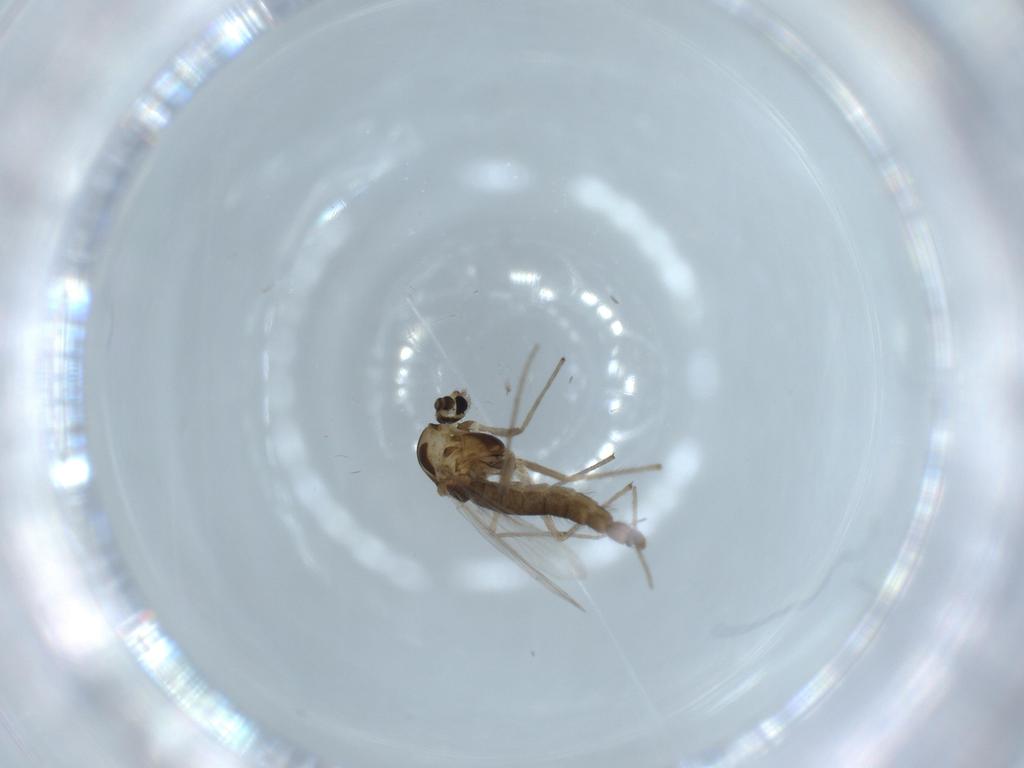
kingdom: Animalia
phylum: Arthropoda
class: Insecta
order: Diptera
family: Chironomidae
